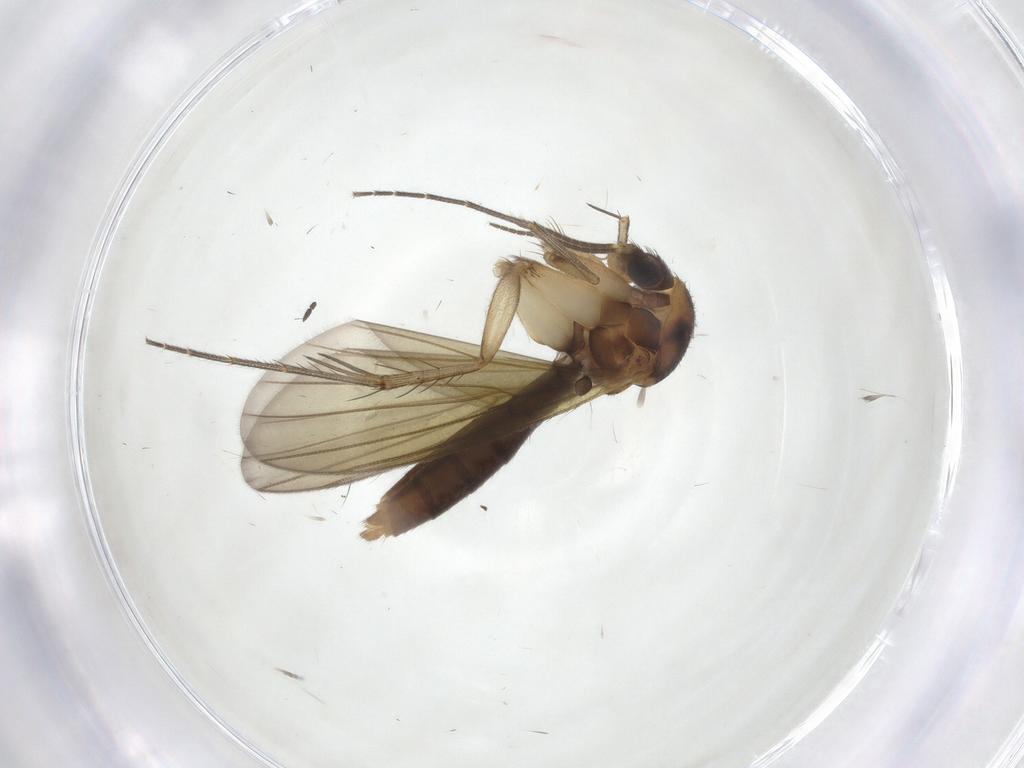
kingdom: Animalia
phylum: Arthropoda
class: Insecta
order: Diptera
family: Mycetophilidae
